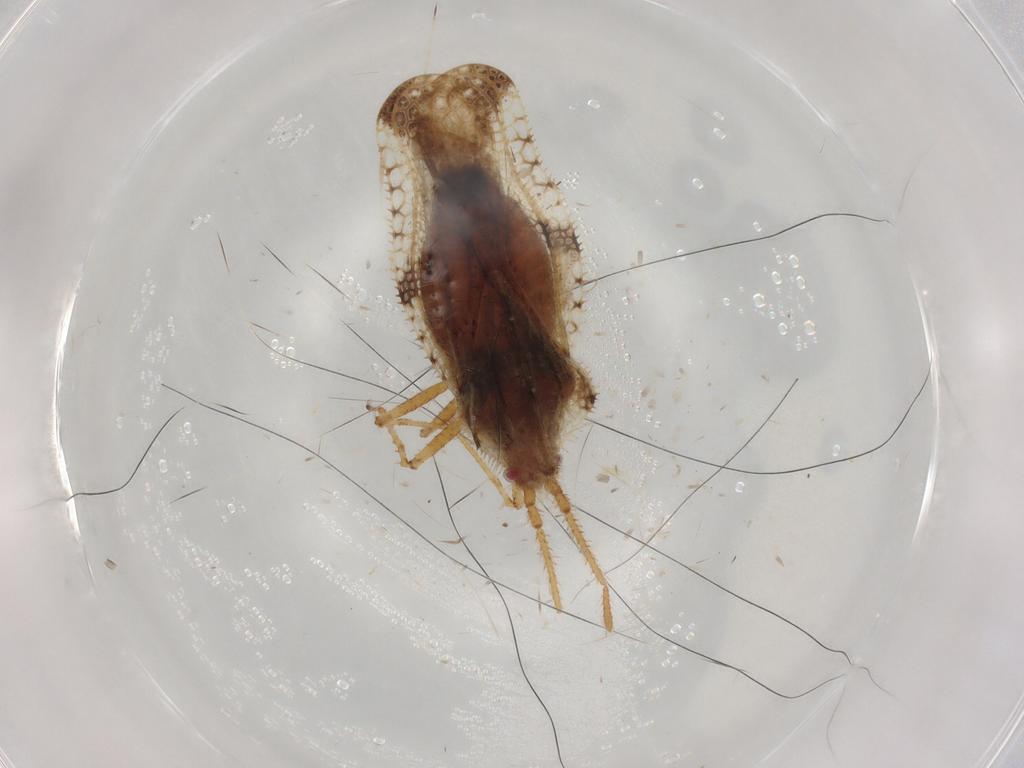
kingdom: Animalia
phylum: Arthropoda
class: Insecta
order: Hemiptera
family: Tingidae
